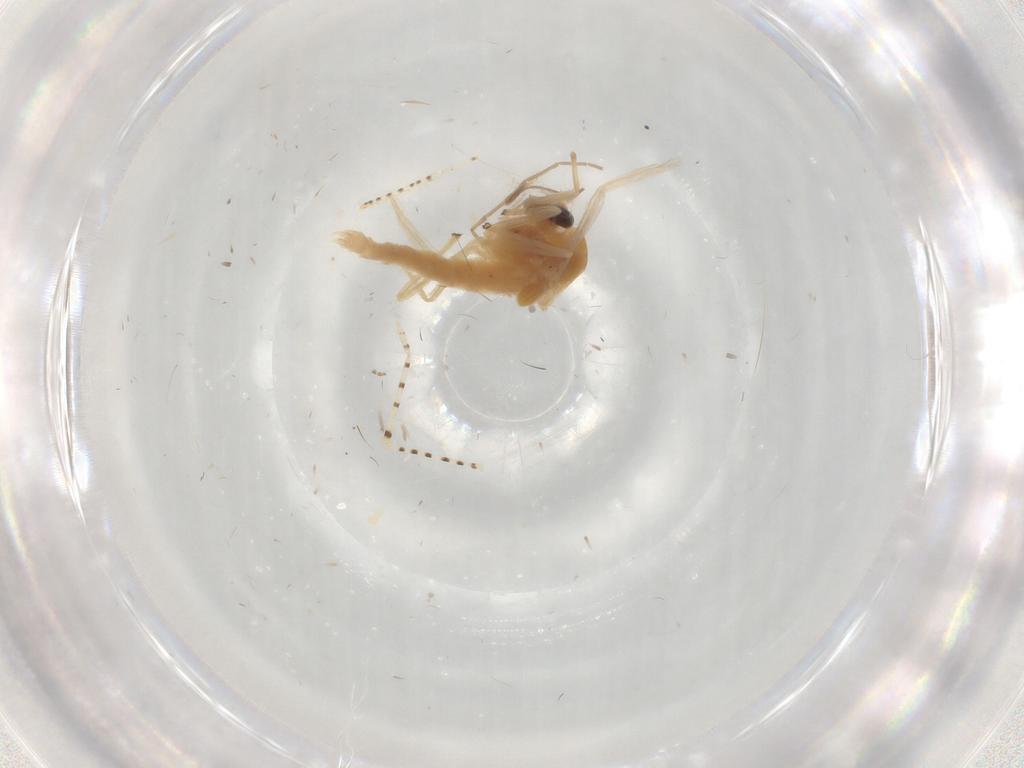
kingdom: Animalia
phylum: Arthropoda
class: Insecta
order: Diptera
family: Chironomidae
